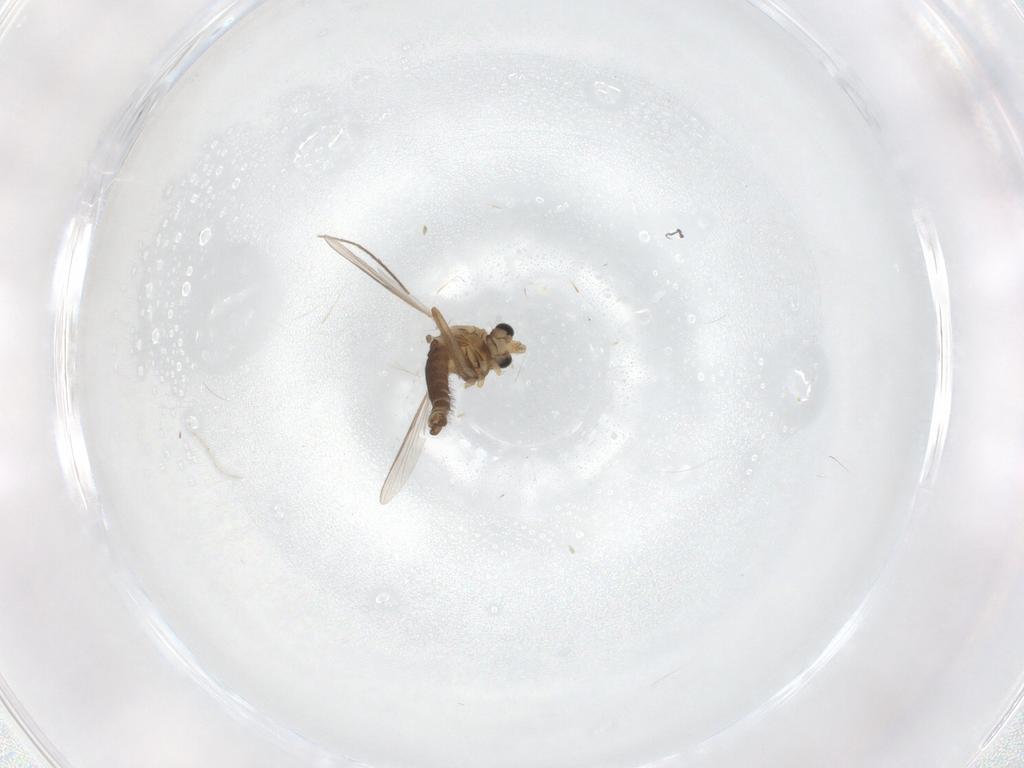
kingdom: Animalia
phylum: Arthropoda
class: Insecta
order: Diptera
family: Chironomidae
